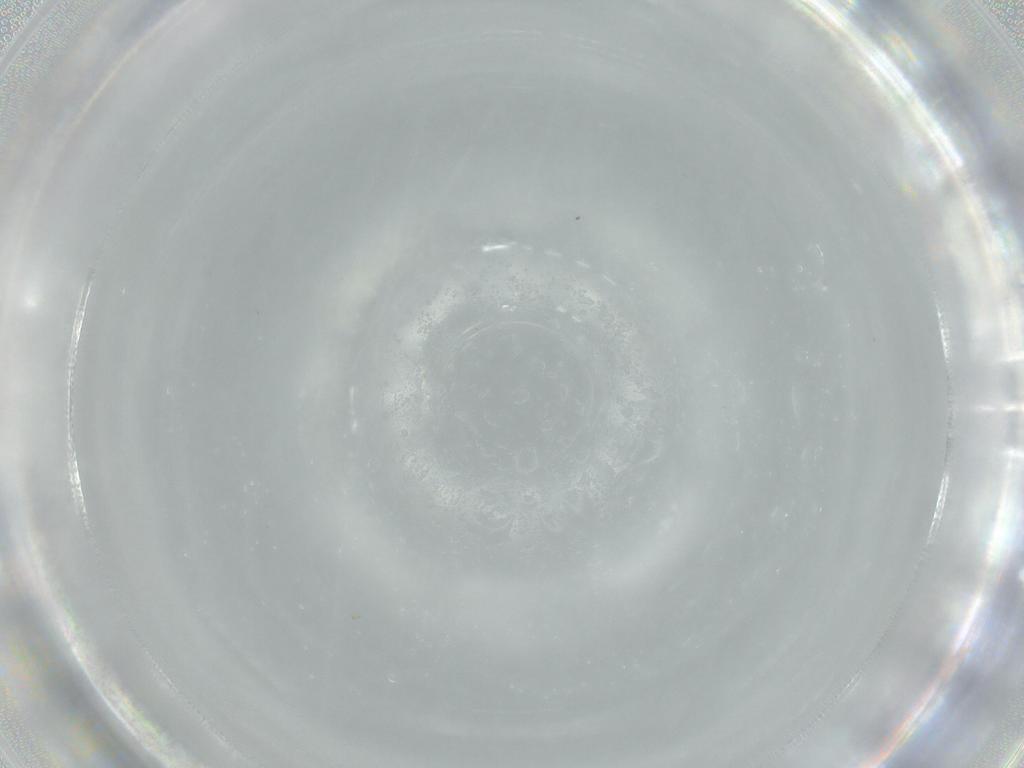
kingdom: Animalia
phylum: Arthropoda
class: Insecta
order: Diptera
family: Cecidomyiidae
